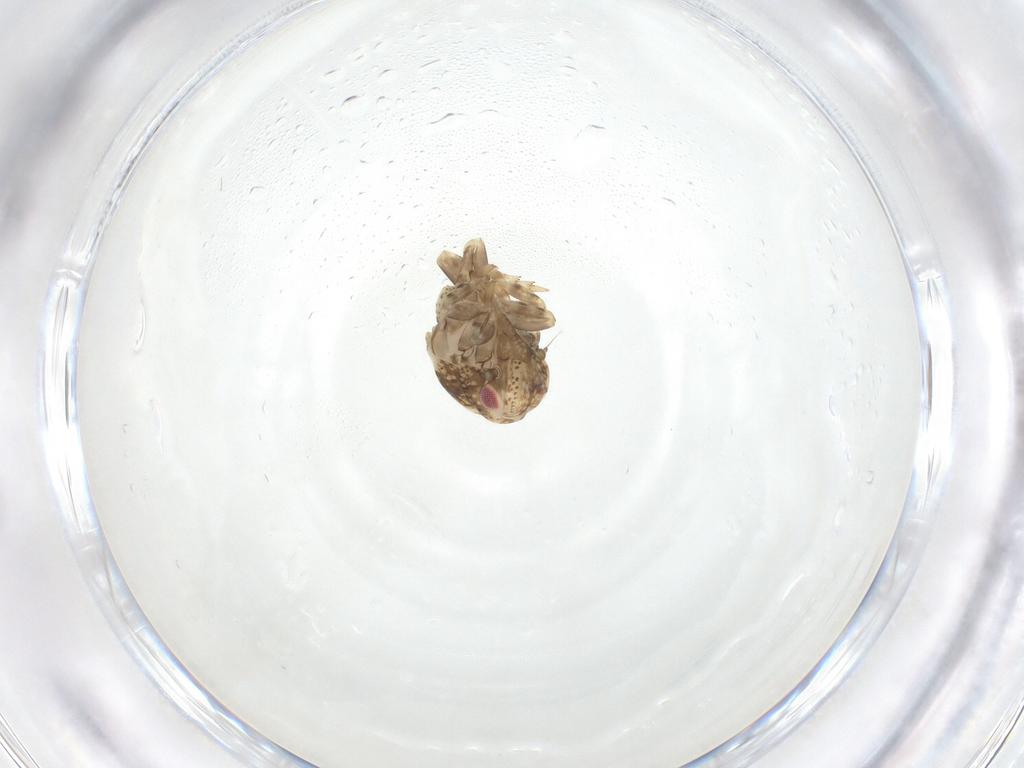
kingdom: Animalia
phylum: Arthropoda
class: Insecta
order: Hemiptera
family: Acanaloniidae
